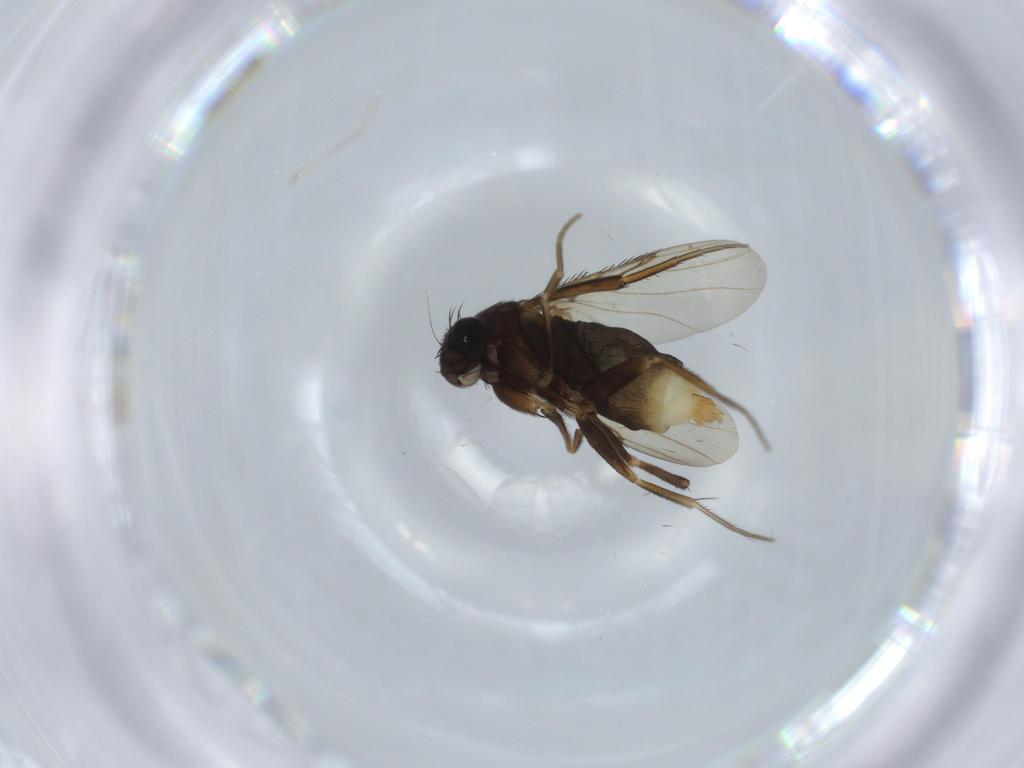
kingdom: Animalia
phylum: Arthropoda
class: Insecta
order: Diptera
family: Phoridae
